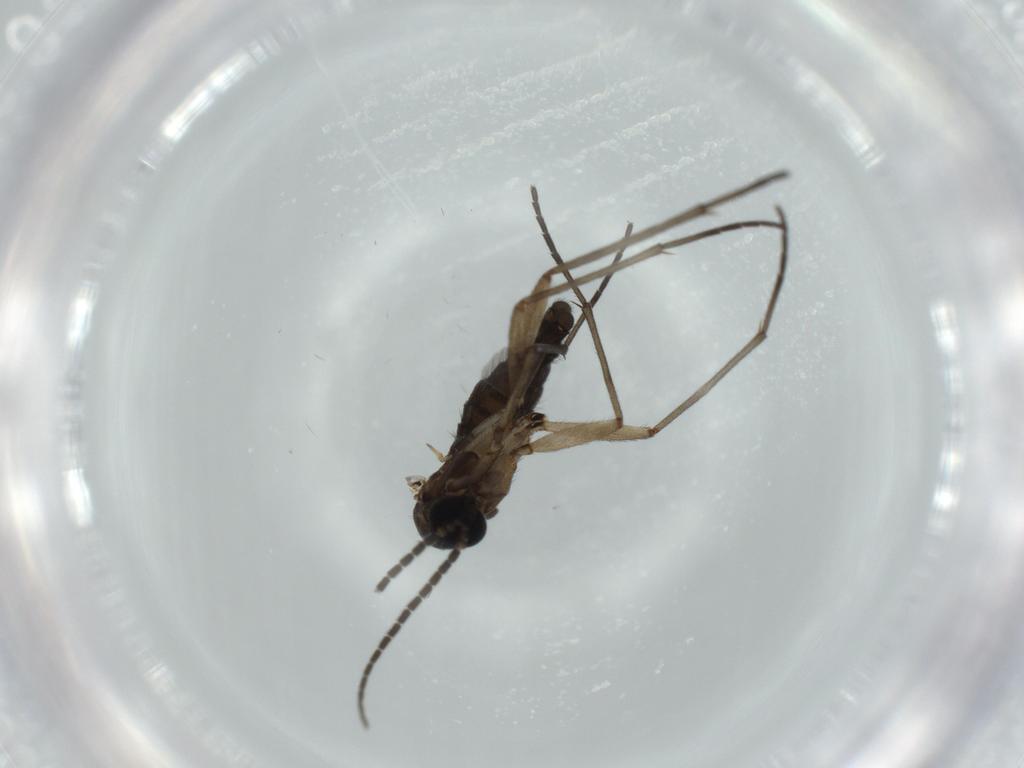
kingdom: Animalia
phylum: Arthropoda
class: Insecta
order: Diptera
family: Sciaridae
